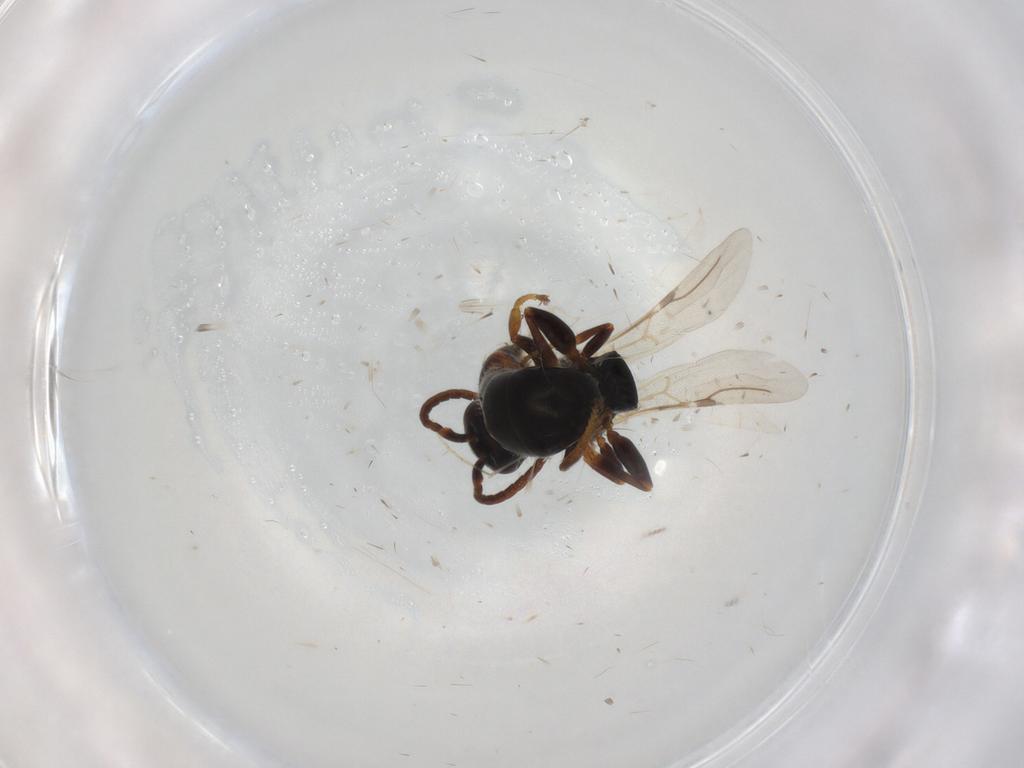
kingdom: Animalia
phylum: Arthropoda
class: Insecta
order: Hymenoptera
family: Bethylidae
